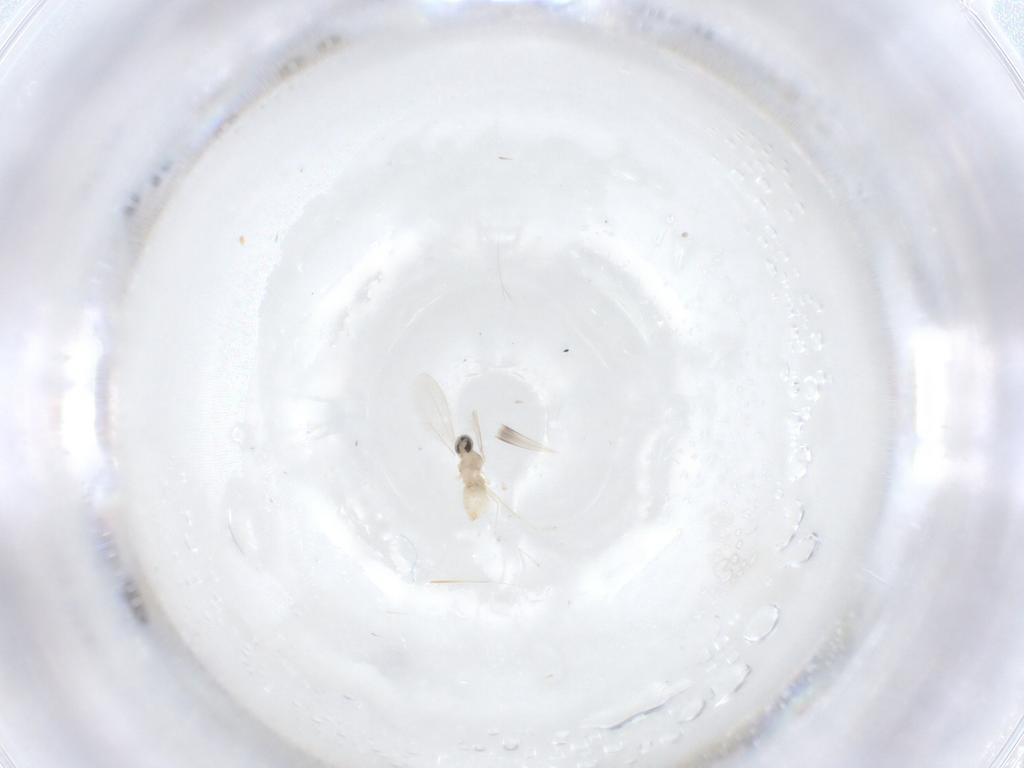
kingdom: Animalia
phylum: Arthropoda
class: Insecta
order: Diptera
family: Cecidomyiidae
